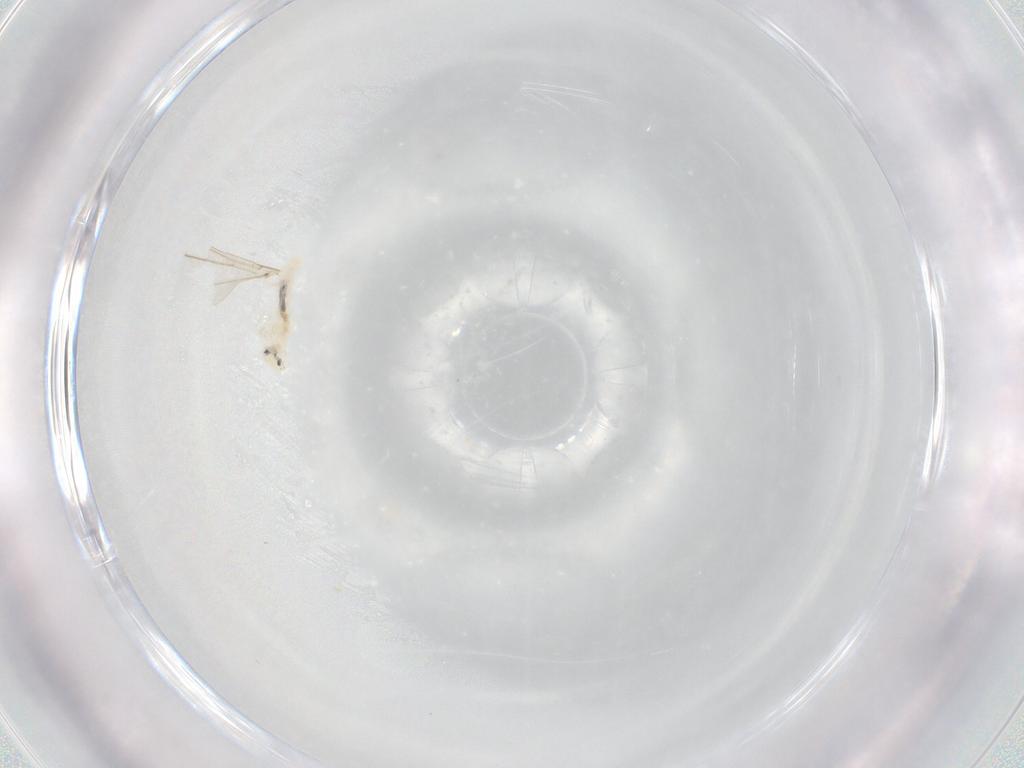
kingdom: Animalia
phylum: Arthropoda
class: Collembola
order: Entomobryomorpha
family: Entomobryidae
